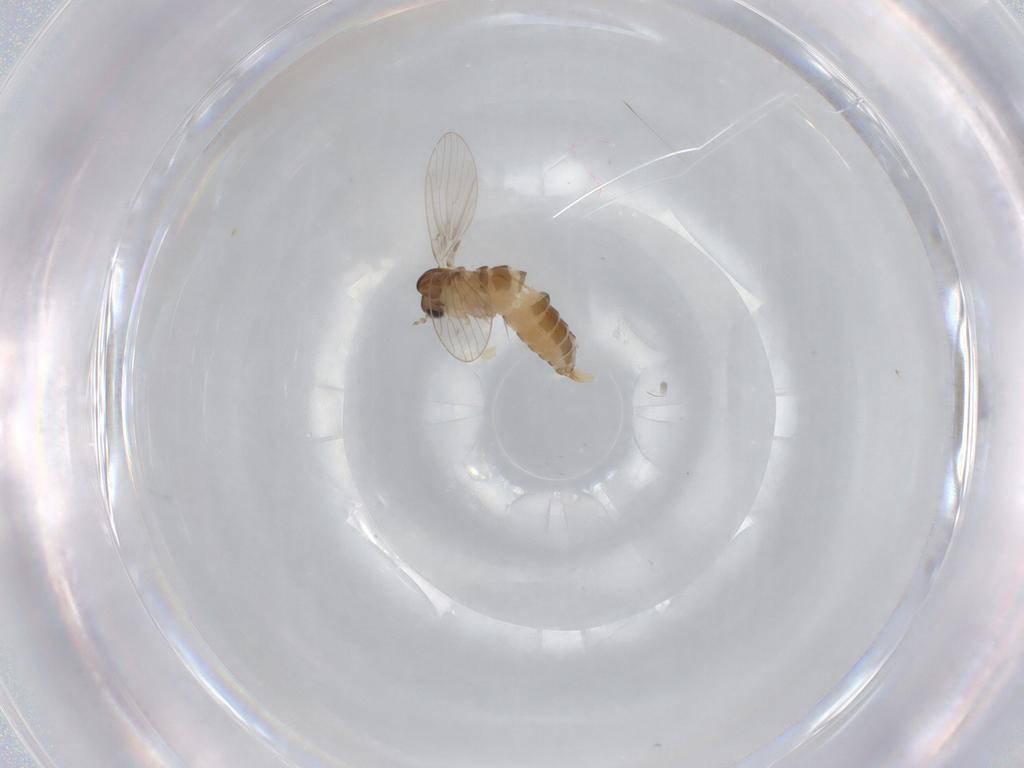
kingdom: Animalia
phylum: Arthropoda
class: Insecta
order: Diptera
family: Psychodidae
